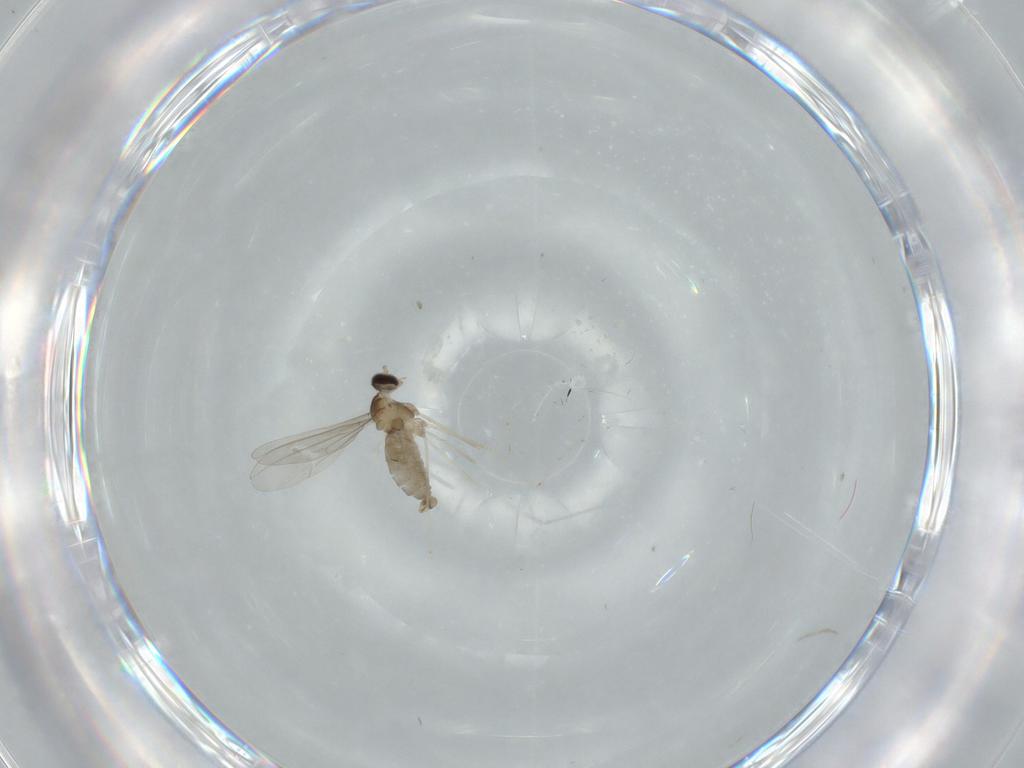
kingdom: Animalia
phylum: Arthropoda
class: Insecta
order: Diptera
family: Cecidomyiidae
